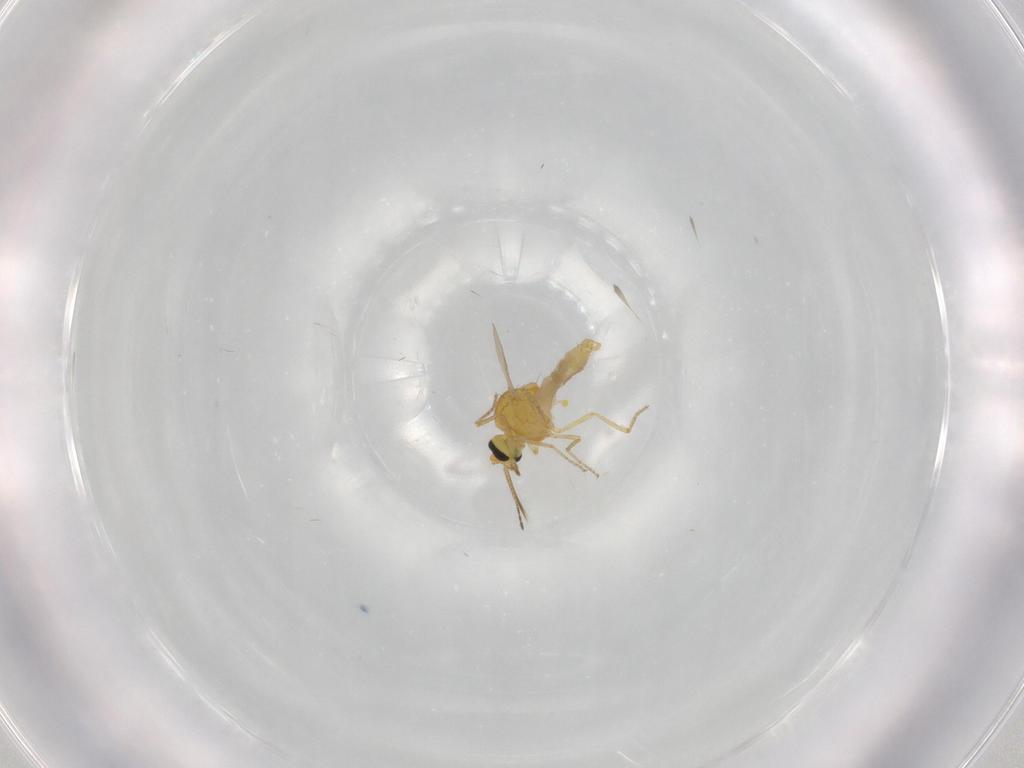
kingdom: Animalia
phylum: Arthropoda
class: Insecta
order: Diptera
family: Ceratopogonidae
